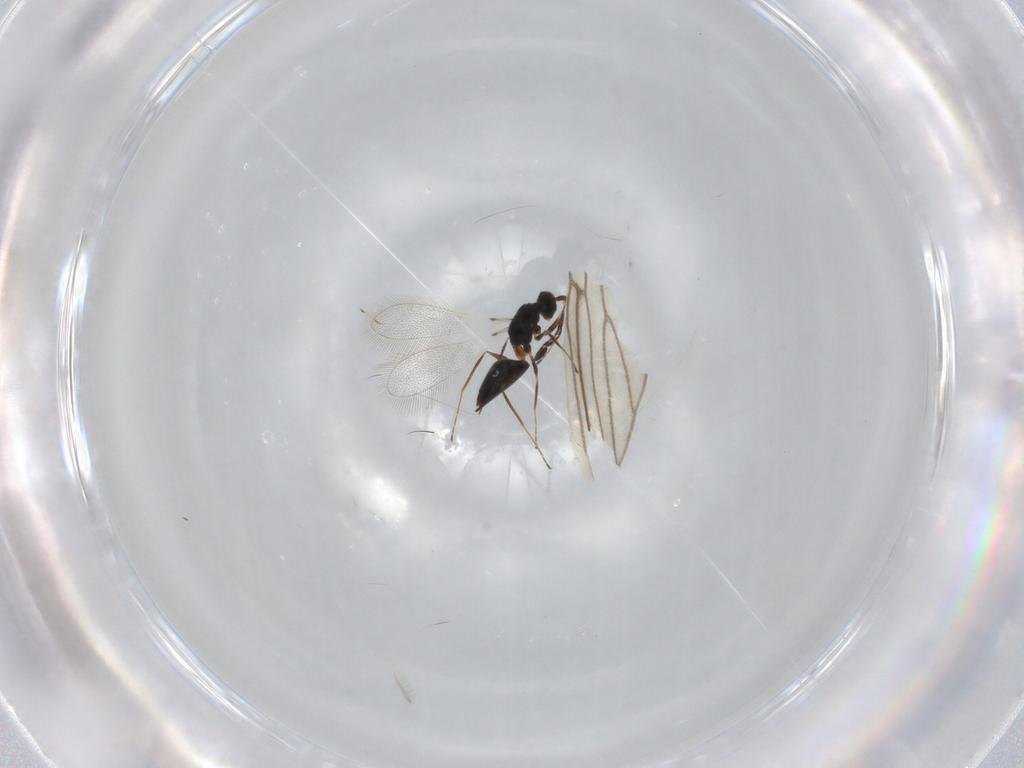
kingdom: Animalia
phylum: Arthropoda
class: Insecta
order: Hymenoptera
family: Mymaridae
